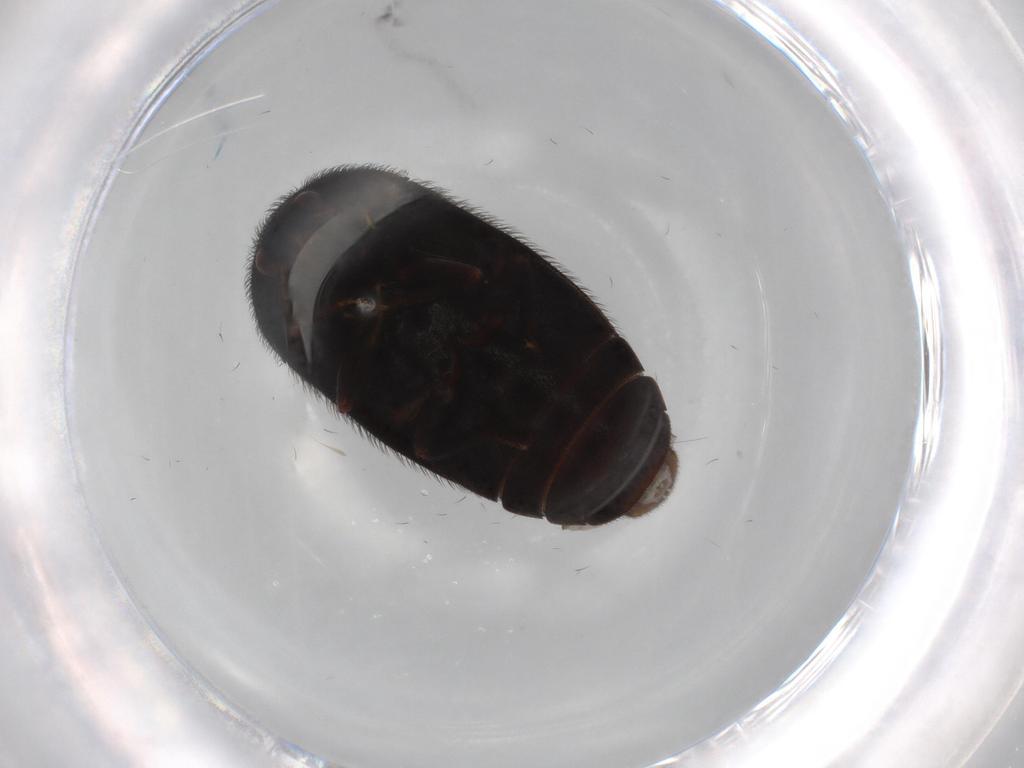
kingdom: Animalia
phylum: Arthropoda
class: Insecta
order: Coleoptera
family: Dermestidae
